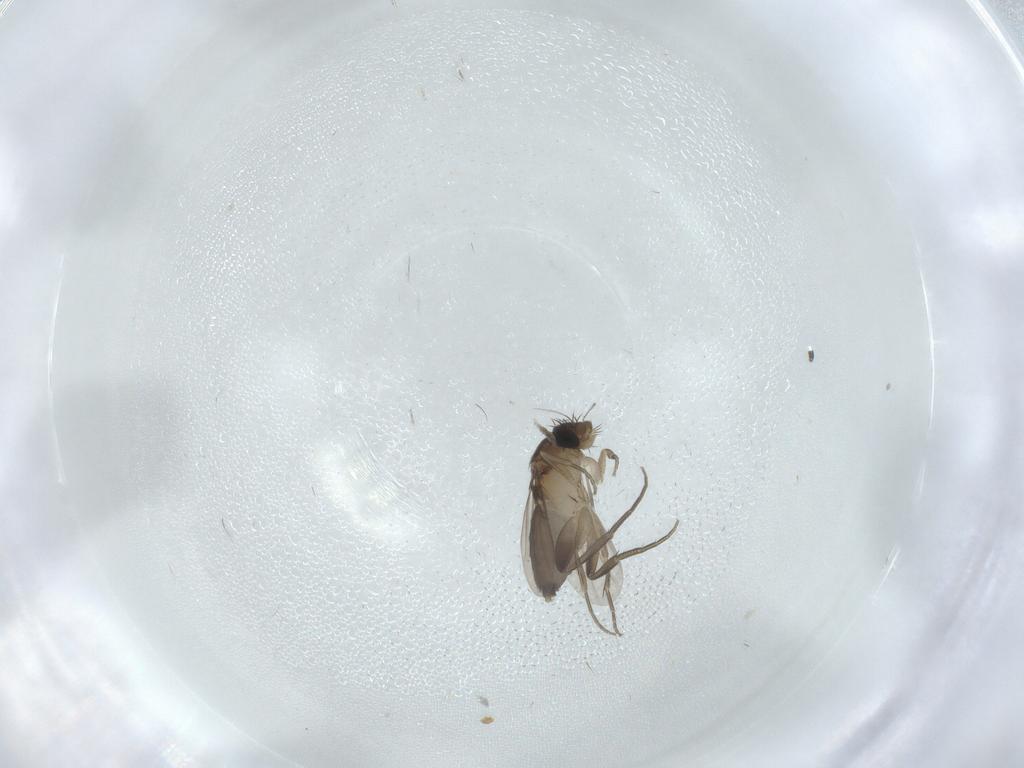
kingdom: Animalia
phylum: Arthropoda
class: Insecta
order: Diptera
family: Phoridae
